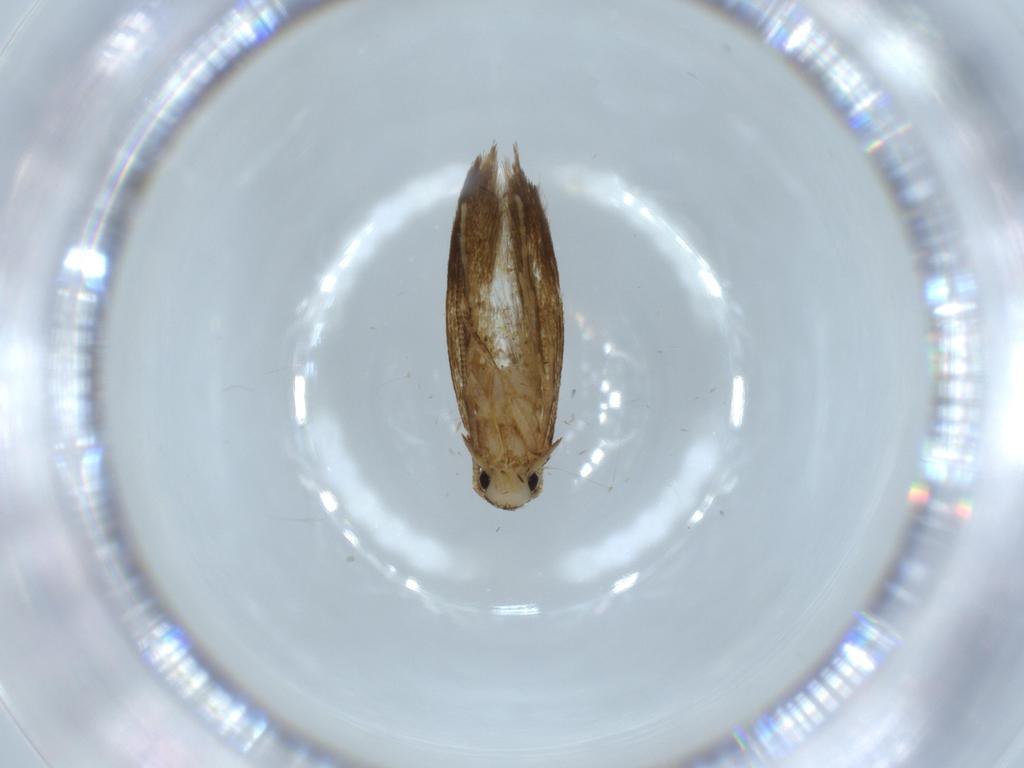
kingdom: Animalia
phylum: Arthropoda
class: Insecta
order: Lepidoptera
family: Tineidae
